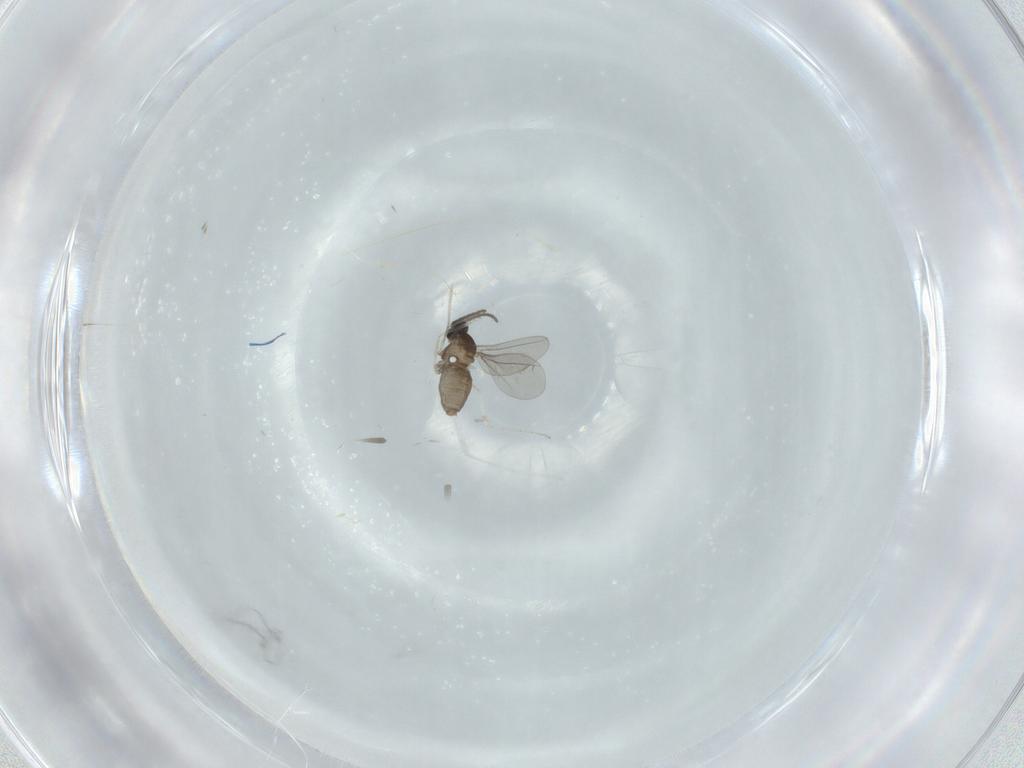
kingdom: Animalia
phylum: Arthropoda
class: Insecta
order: Diptera
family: Cecidomyiidae
